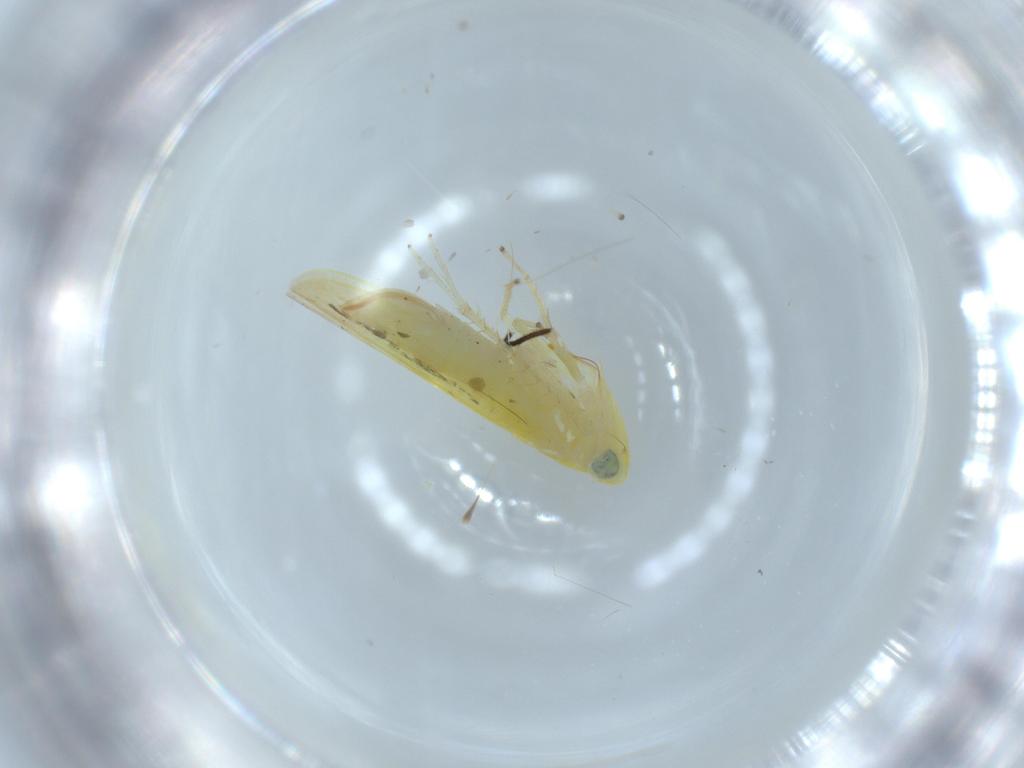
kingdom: Animalia
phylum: Arthropoda
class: Insecta
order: Hemiptera
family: Cicadellidae
